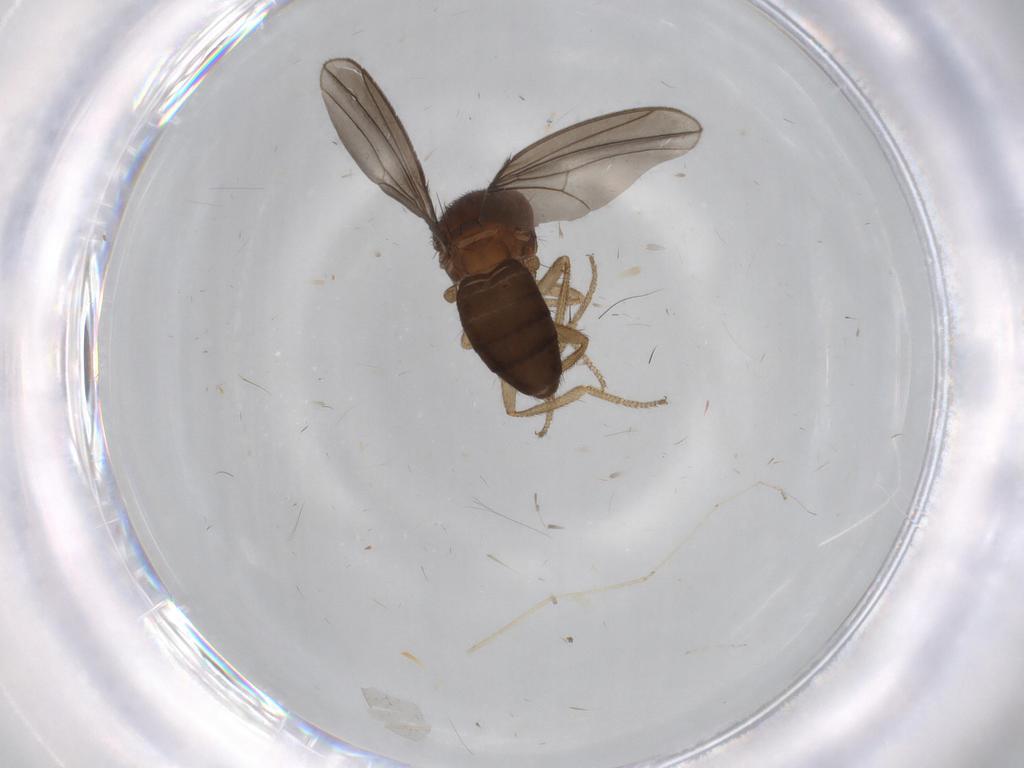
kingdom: Animalia
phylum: Arthropoda
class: Insecta
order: Diptera
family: Drosophilidae
